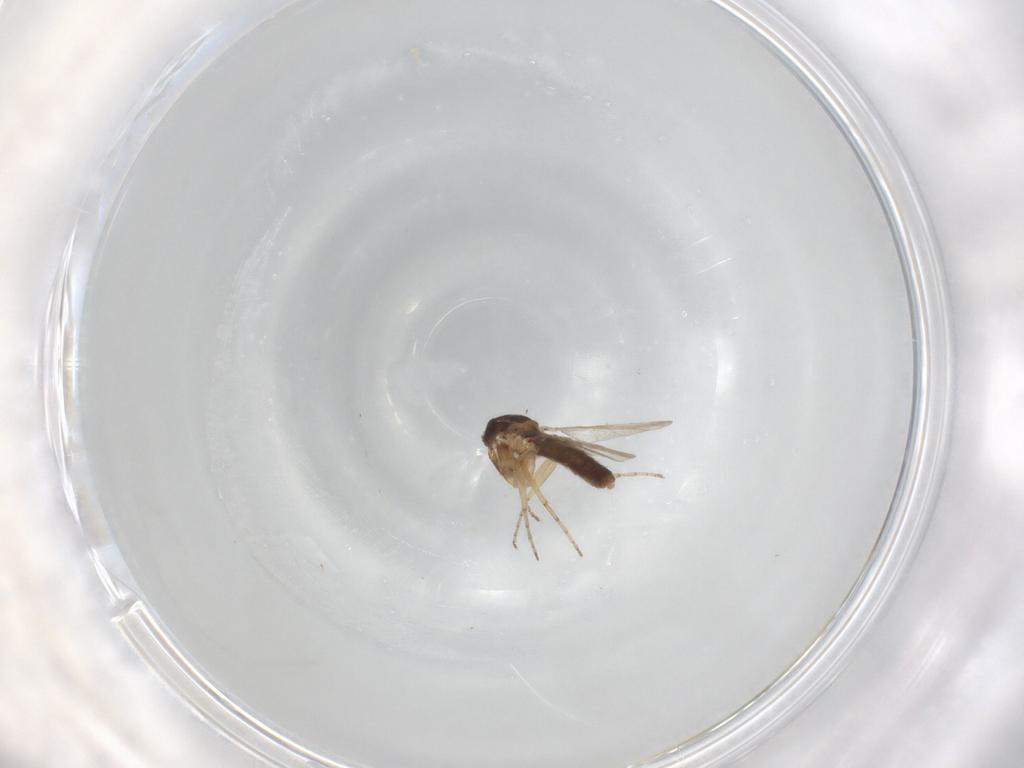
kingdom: Animalia
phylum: Arthropoda
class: Insecta
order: Diptera
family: Ceratopogonidae
